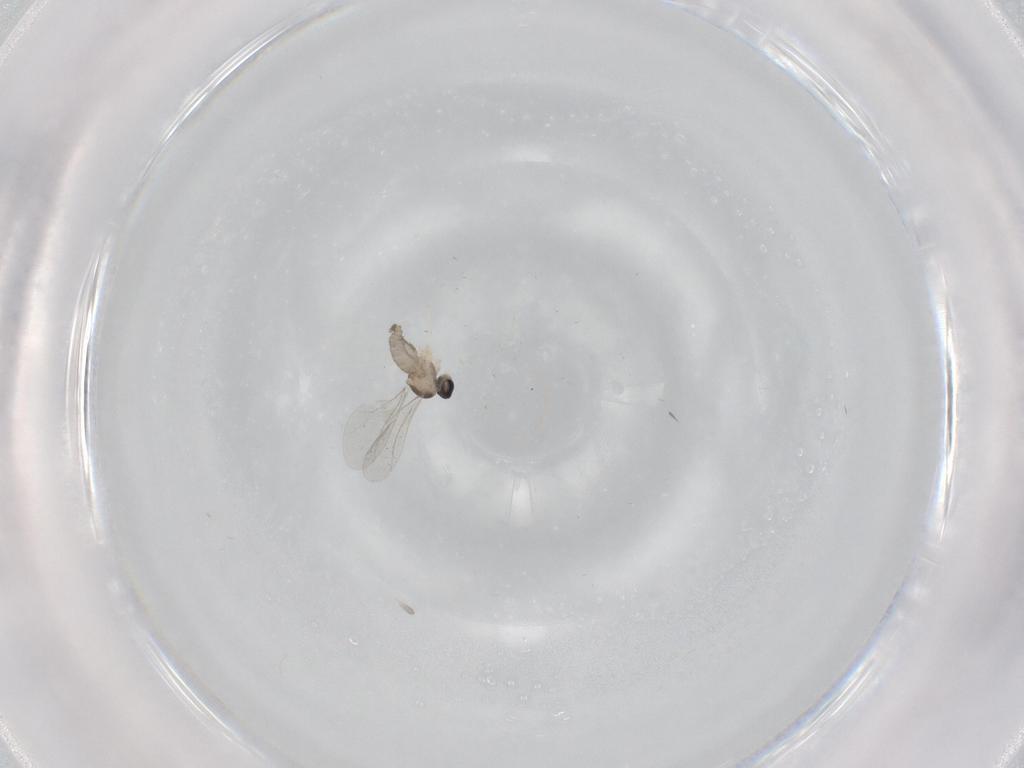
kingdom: Animalia
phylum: Arthropoda
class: Insecta
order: Diptera
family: Cecidomyiidae
